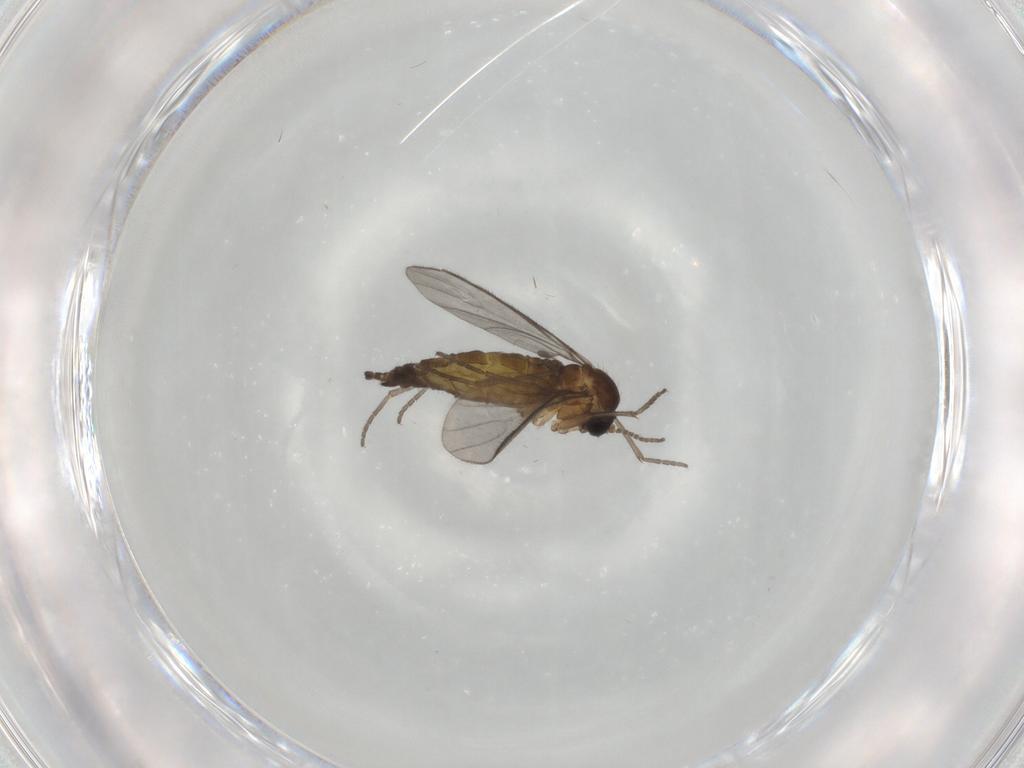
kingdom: Animalia
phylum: Arthropoda
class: Insecta
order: Diptera
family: Sciaridae
